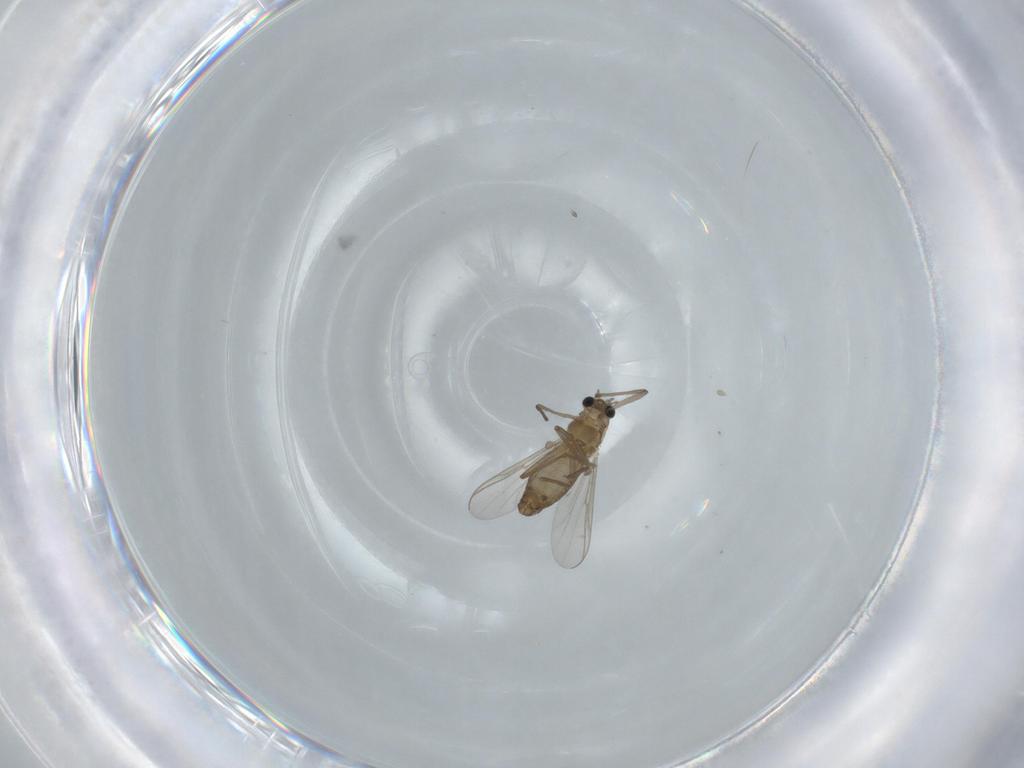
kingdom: Animalia
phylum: Arthropoda
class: Insecta
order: Diptera
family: Chironomidae
